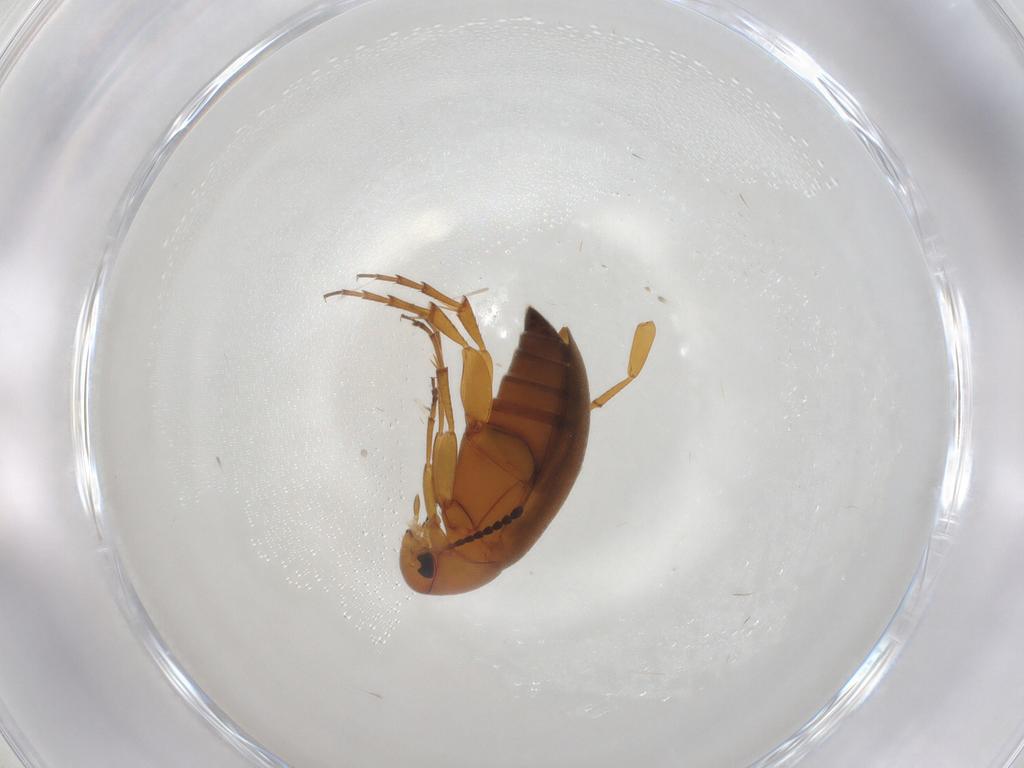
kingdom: Animalia
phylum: Arthropoda
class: Insecta
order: Coleoptera
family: Scraptiidae
